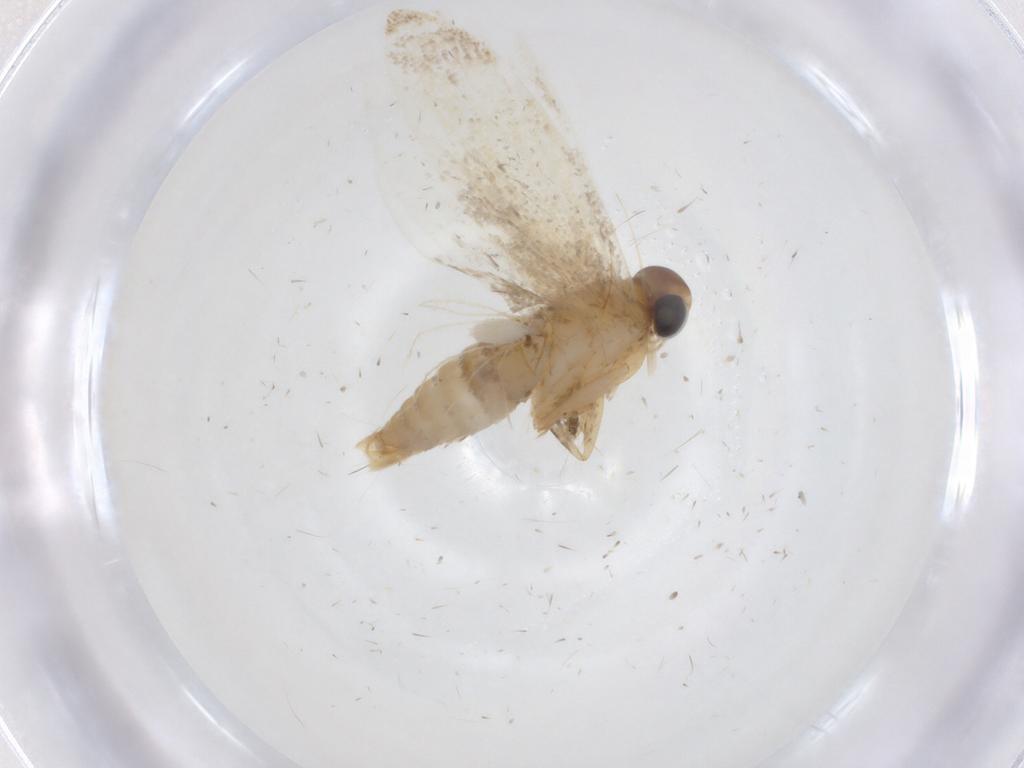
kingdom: Animalia
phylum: Arthropoda
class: Insecta
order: Lepidoptera
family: Oecophoridae
